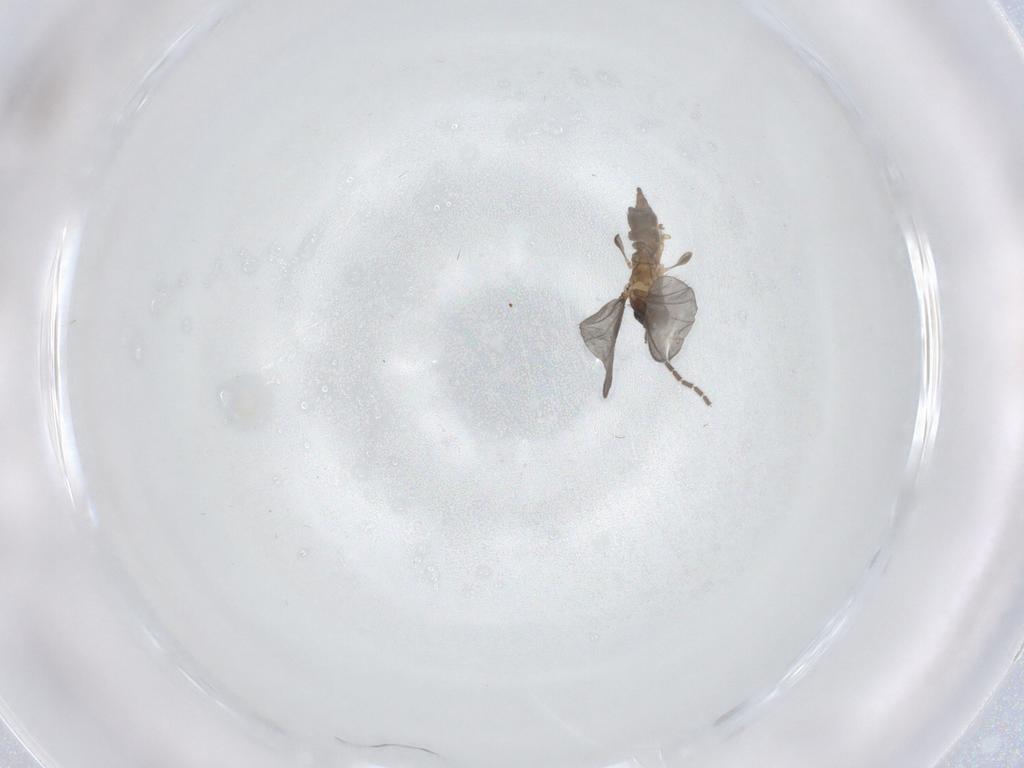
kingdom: Animalia
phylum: Arthropoda
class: Insecta
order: Diptera
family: Sciaridae
